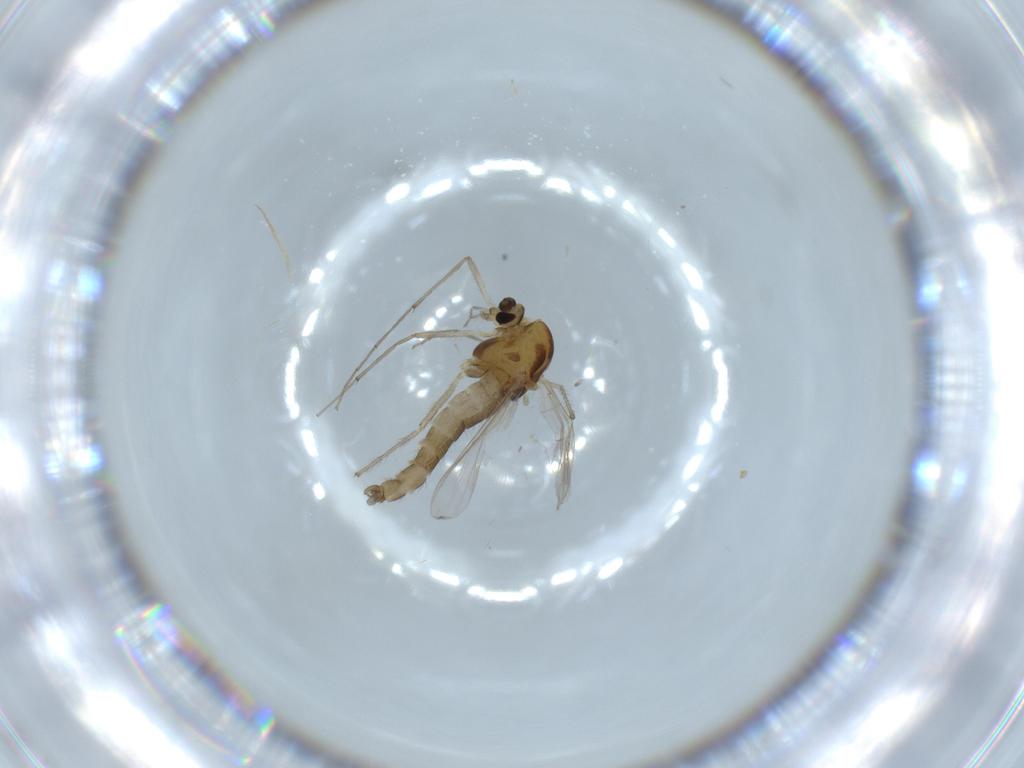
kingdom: Animalia
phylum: Arthropoda
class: Insecta
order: Diptera
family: Chironomidae
